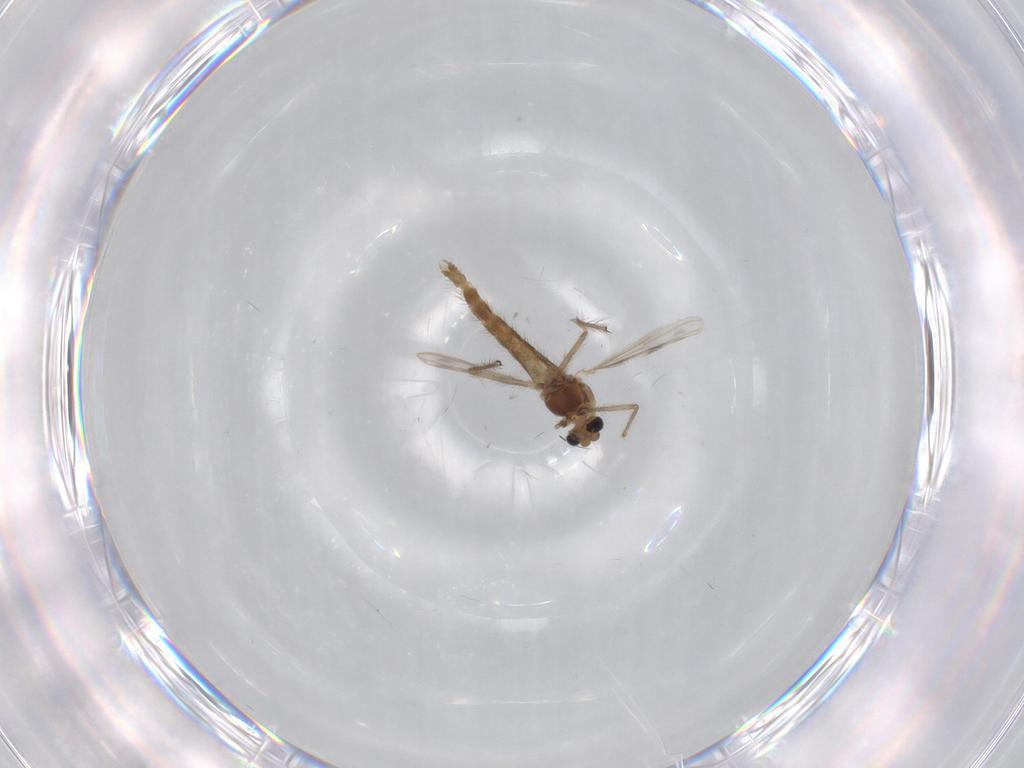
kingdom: Animalia
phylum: Arthropoda
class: Insecta
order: Diptera
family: Chironomidae
